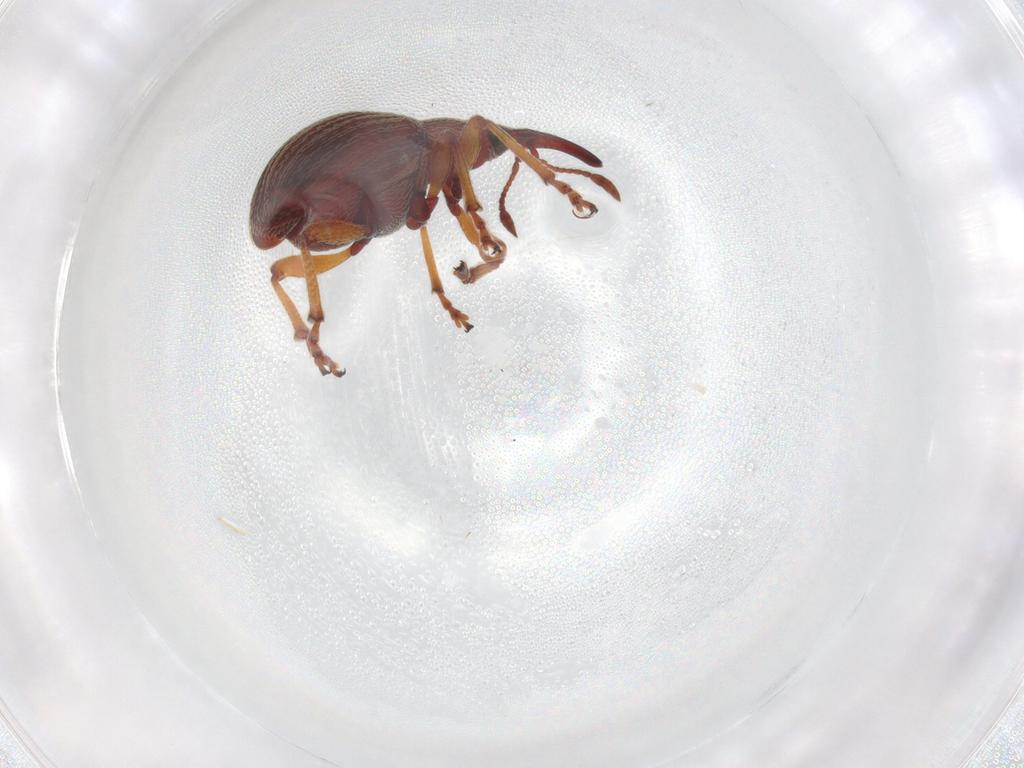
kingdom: Animalia
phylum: Arthropoda
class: Insecta
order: Coleoptera
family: Brentidae
